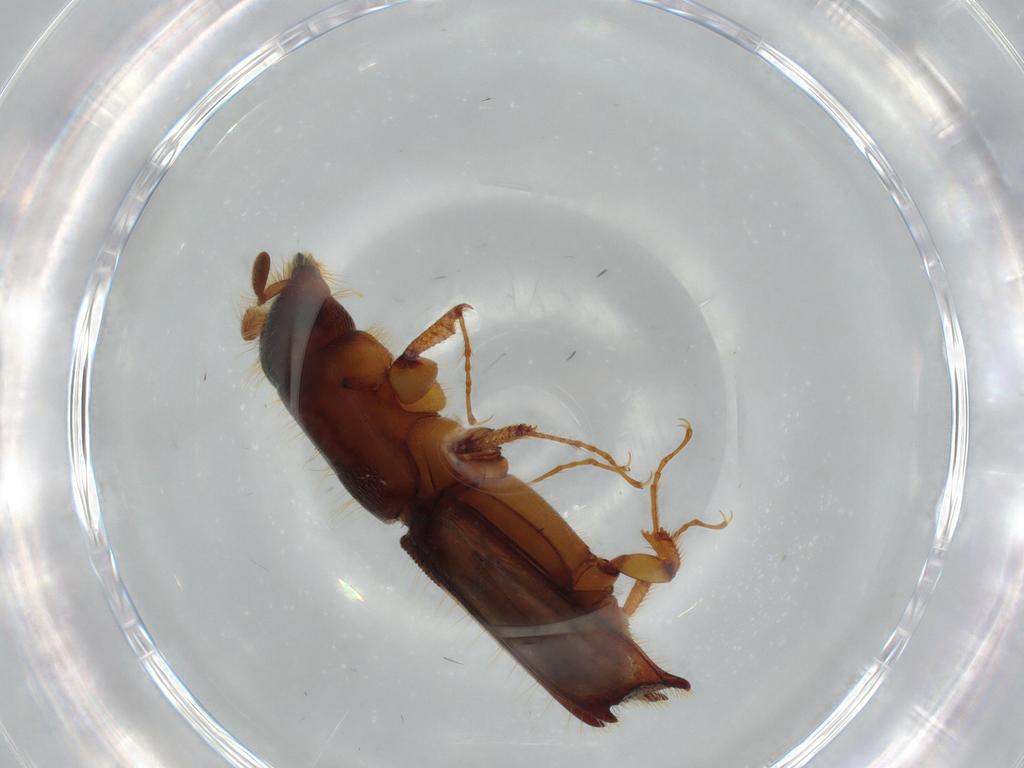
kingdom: Animalia
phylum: Arthropoda
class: Insecta
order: Coleoptera
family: Curculionidae
